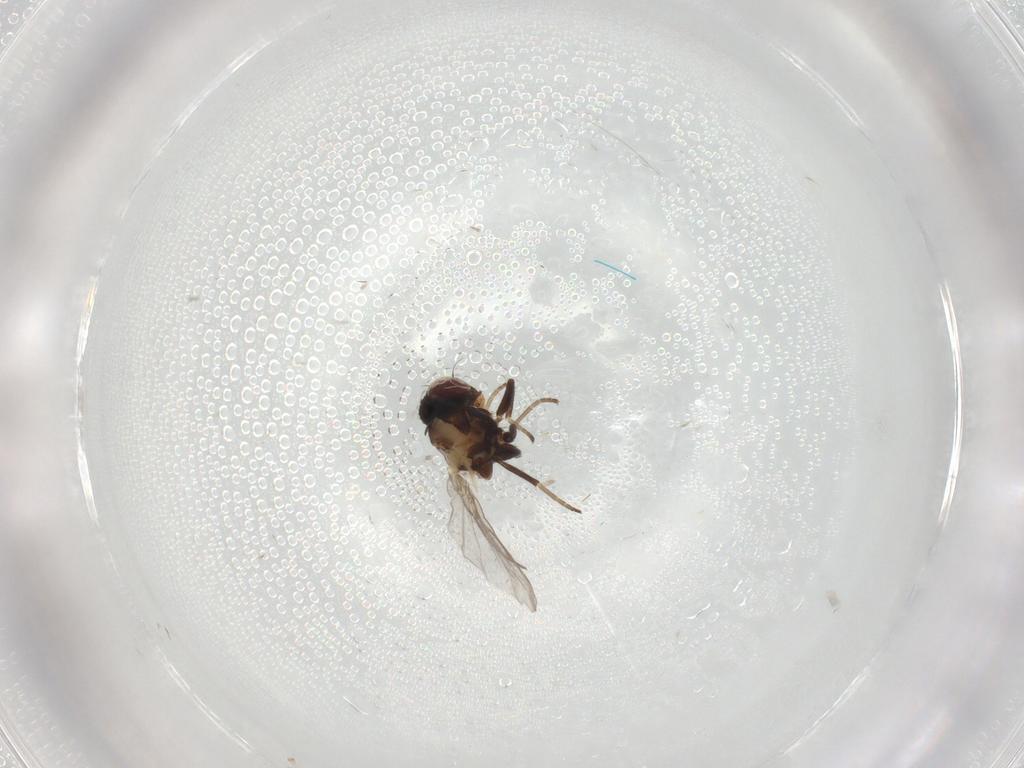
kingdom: Animalia
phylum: Arthropoda
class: Insecta
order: Diptera
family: Agromyzidae
